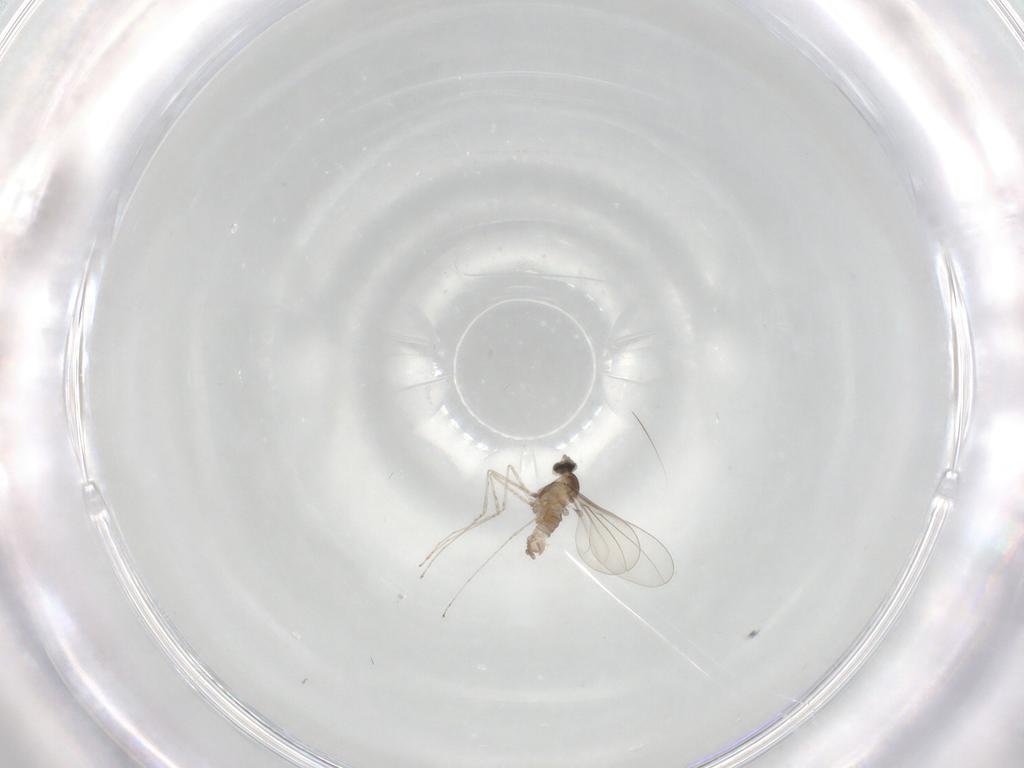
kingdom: Animalia
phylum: Arthropoda
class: Insecta
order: Diptera
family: Cecidomyiidae
